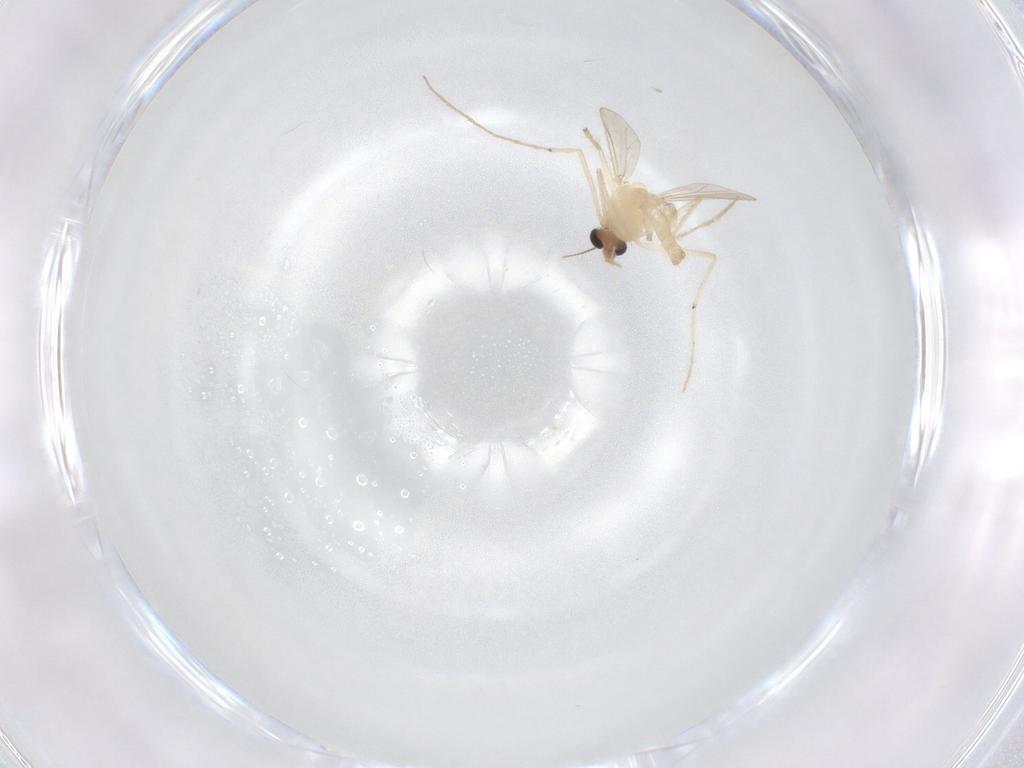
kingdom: Animalia
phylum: Arthropoda
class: Insecta
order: Diptera
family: Chironomidae
